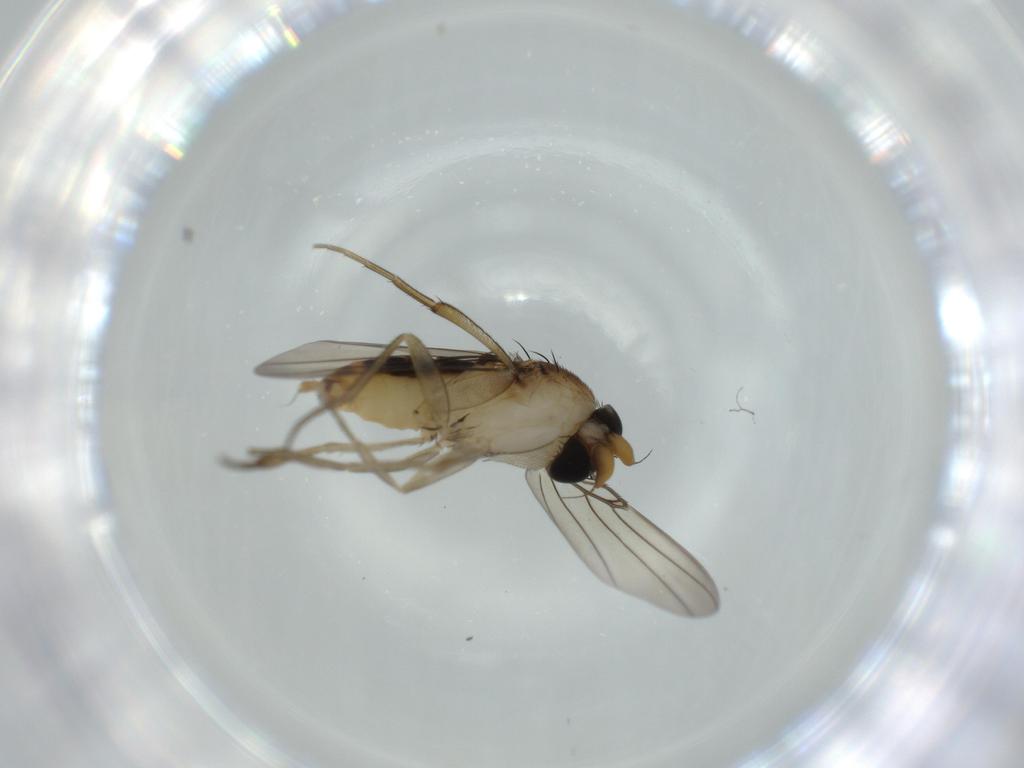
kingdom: Animalia
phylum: Arthropoda
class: Insecta
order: Diptera
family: Phoridae
